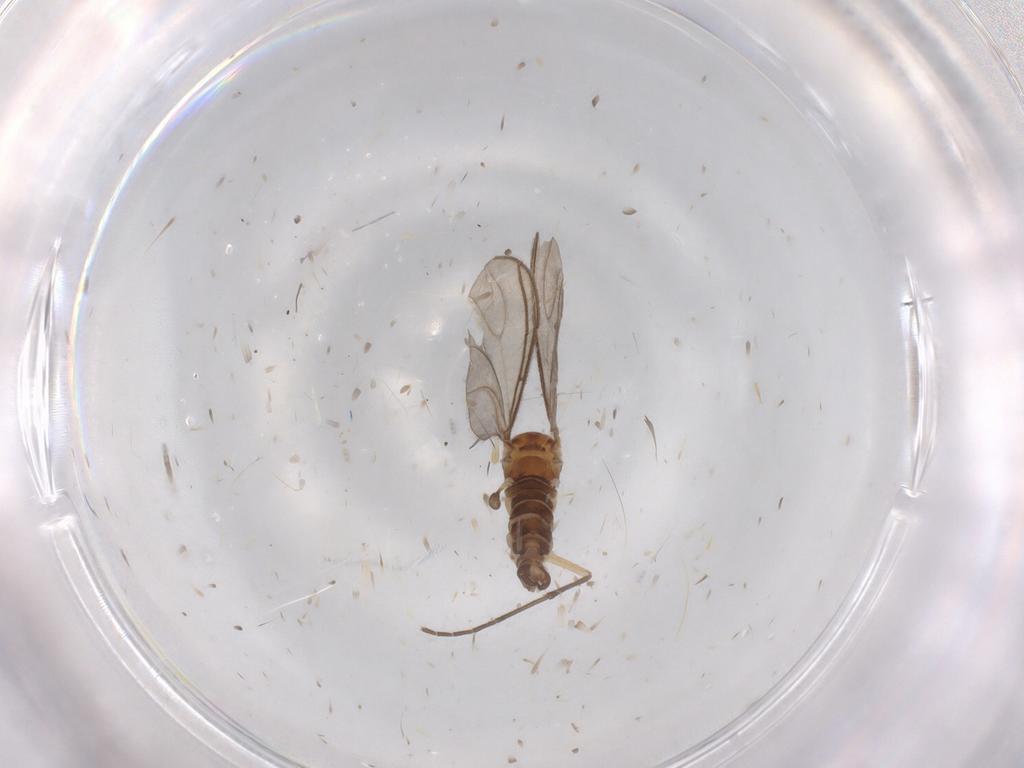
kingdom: Animalia
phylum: Arthropoda
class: Insecta
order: Diptera
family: Sciaridae
